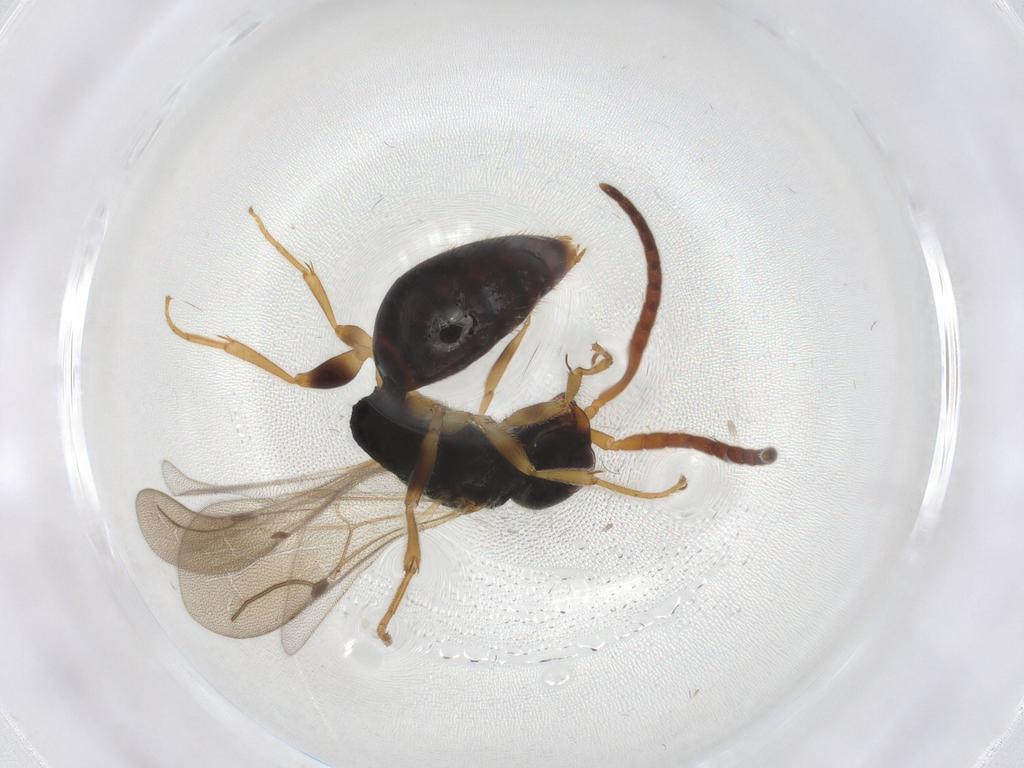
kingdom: Animalia
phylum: Arthropoda
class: Insecta
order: Hymenoptera
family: Bethylidae
